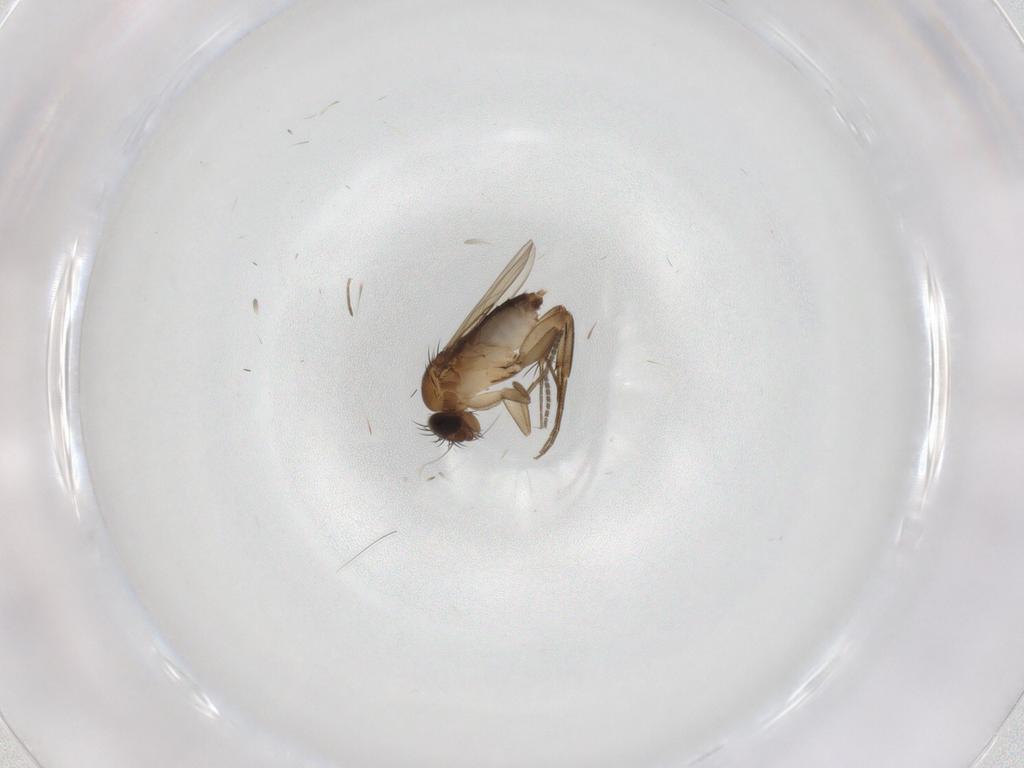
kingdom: Animalia
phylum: Arthropoda
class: Insecta
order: Diptera
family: Phoridae
